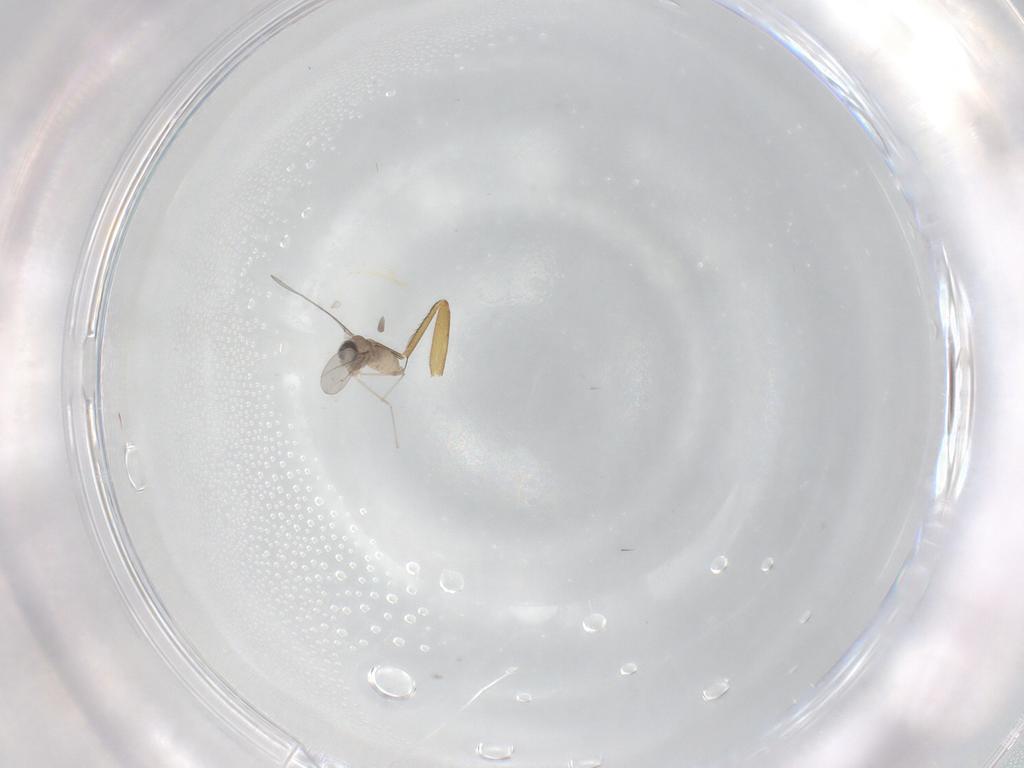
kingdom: Animalia
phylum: Arthropoda
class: Insecta
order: Diptera
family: Cecidomyiidae
